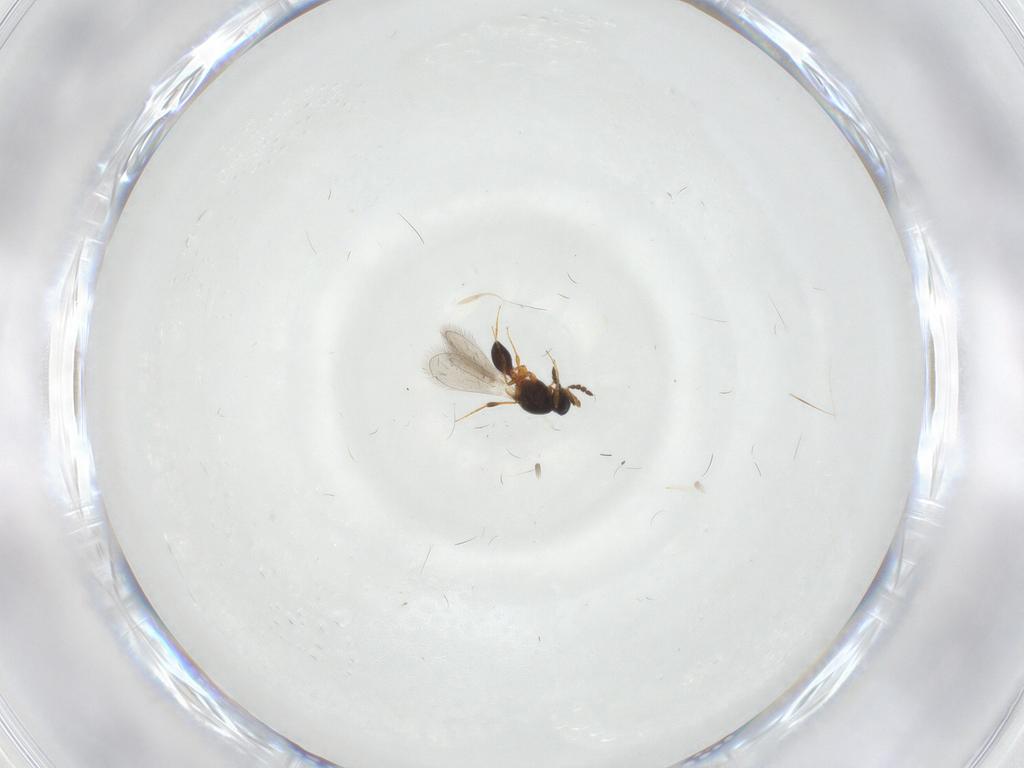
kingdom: Animalia
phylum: Arthropoda
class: Insecta
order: Hymenoptera
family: Platygastridae
